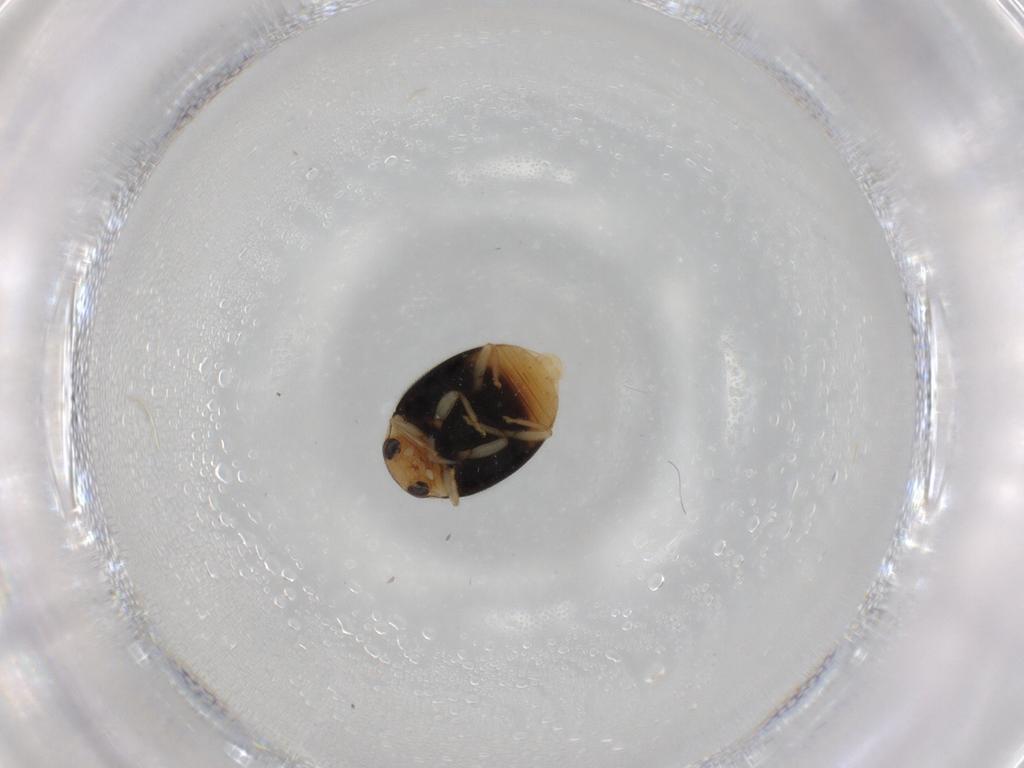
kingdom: Animalia
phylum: Arthropoda
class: Insecta
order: Coleoptera
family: Coccinellidae
